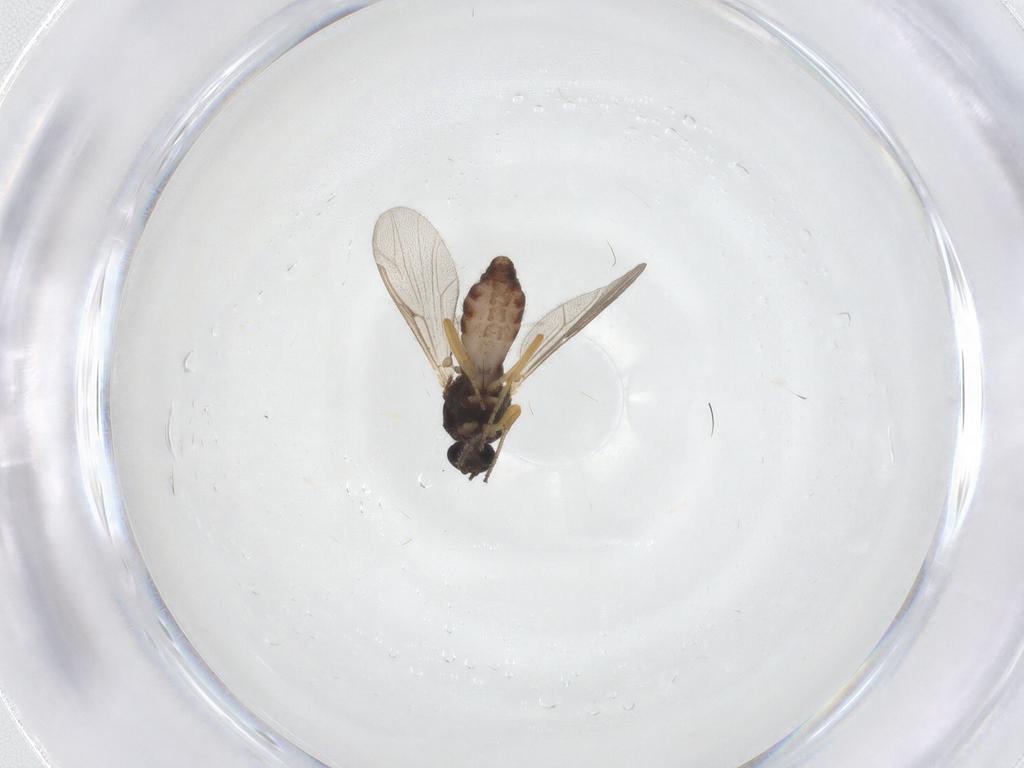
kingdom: Animalia
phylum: Arthropoda
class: Insecta
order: Diptera
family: Ceratopogonidae
